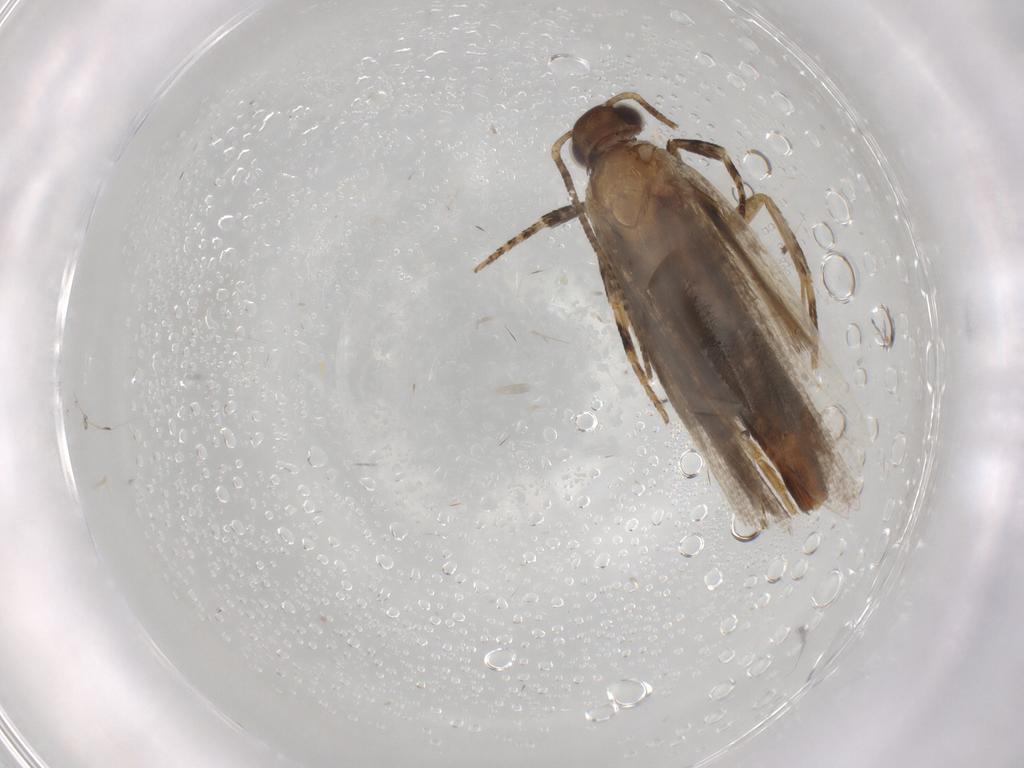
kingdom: Animalia
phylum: Arthropoda
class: Insecta
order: Lepidoptera
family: Gelechiidae
